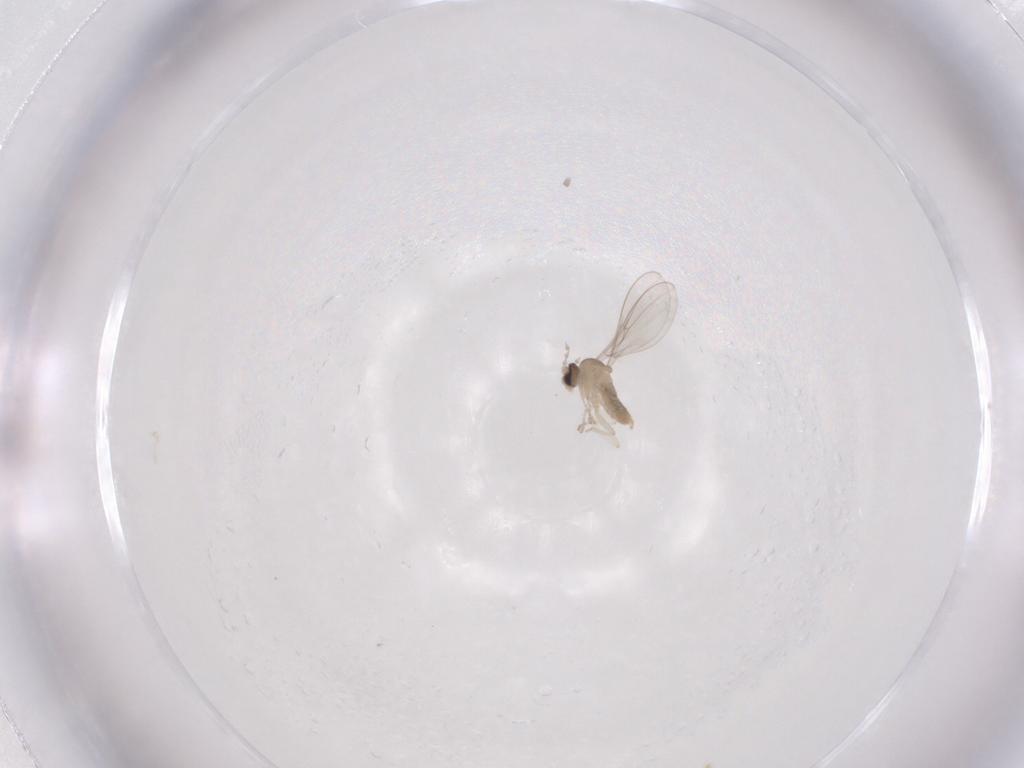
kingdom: Animalia
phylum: Arthropoda
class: Insecta
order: Diptera
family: Cecidomyiidae
